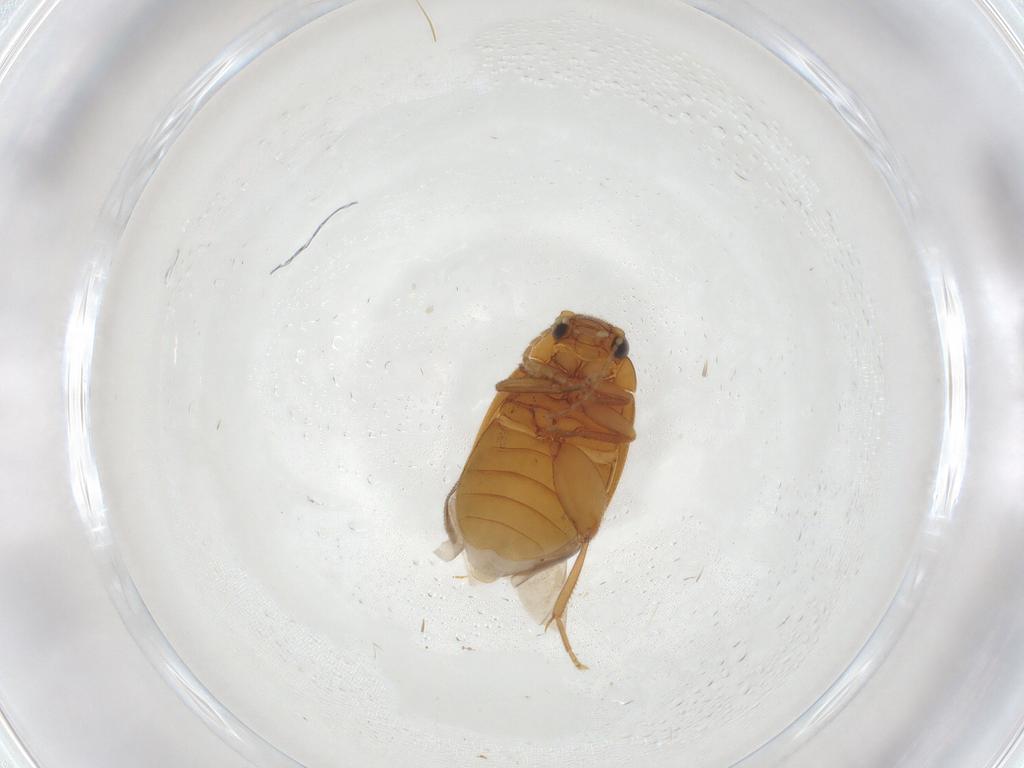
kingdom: Animalia
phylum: Arthropoda
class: Insecta
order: Coleoptera
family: Scirtidae
